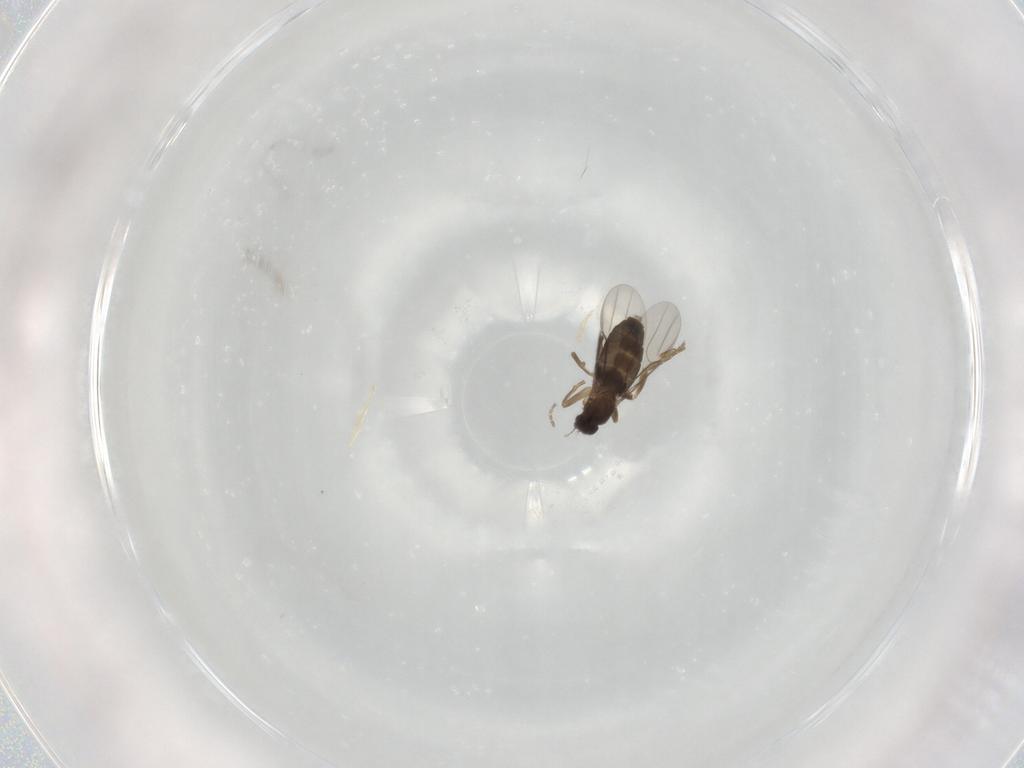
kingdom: Animalia
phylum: Arthropoda
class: Insecta
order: Diptera
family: Phoridae
